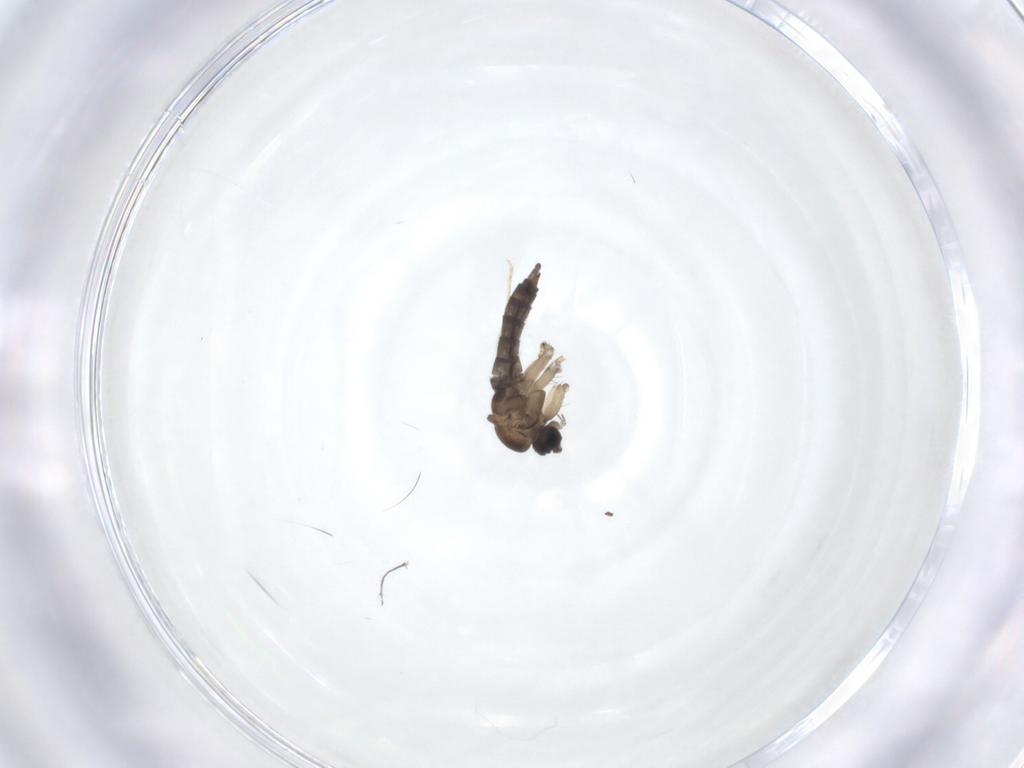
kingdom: Animalia
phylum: Arthropoda
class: Insecta
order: Diptera
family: Sciaridae
